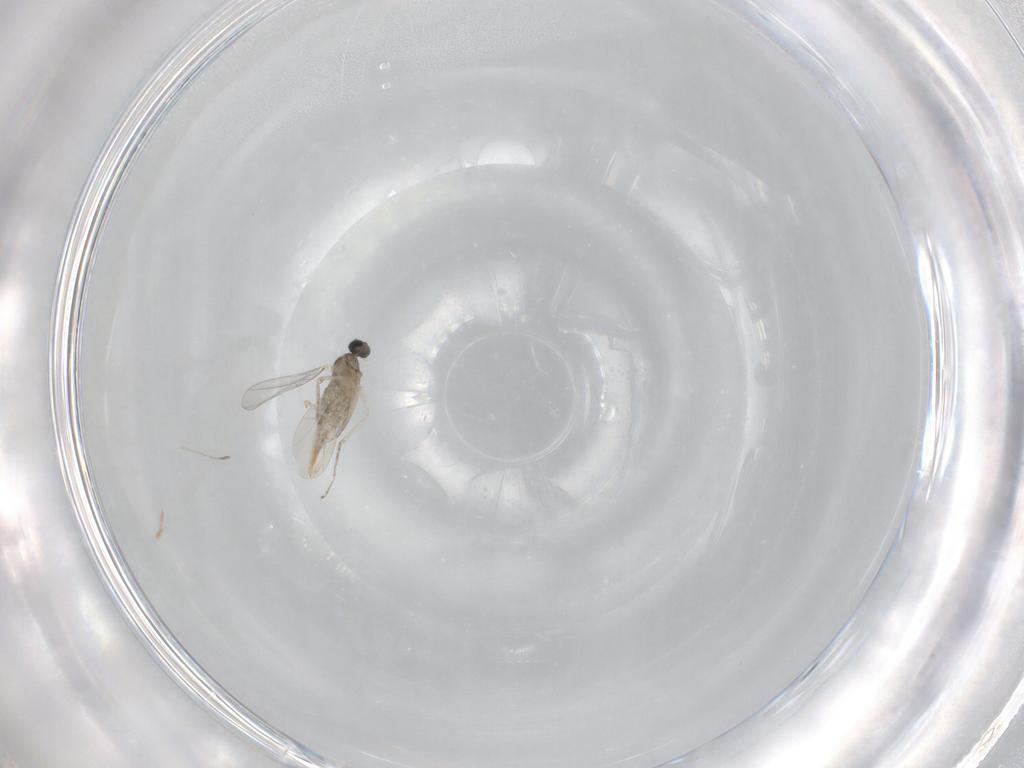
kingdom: Animalia
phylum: Arthropoda
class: Insecta
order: Diptera
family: Cecidomyiidae
